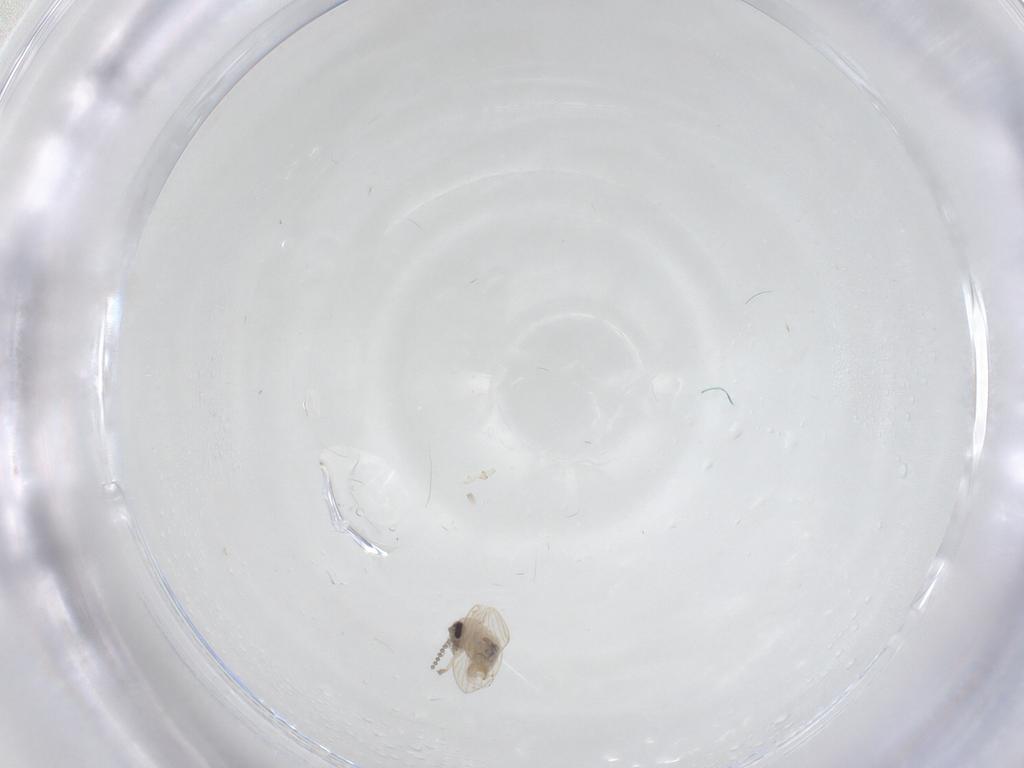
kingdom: Animalia
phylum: Arthropoda
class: Insecta
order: Diptera
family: Psychodidae
